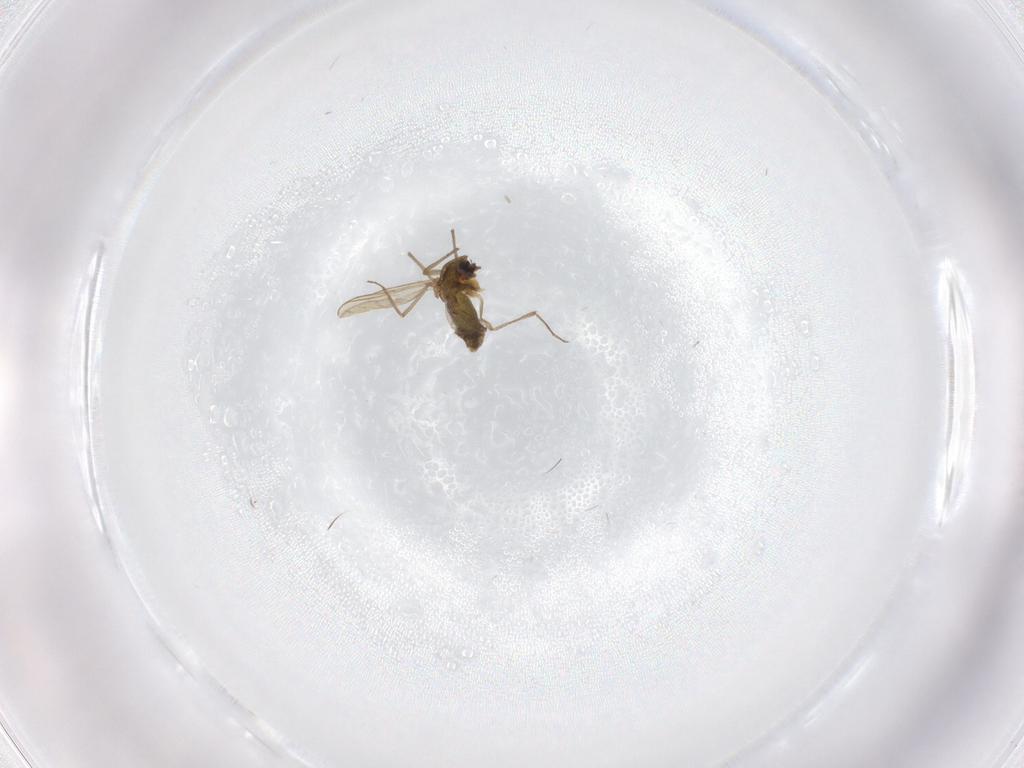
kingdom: Animalia
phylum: Arthropoda
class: Insecta
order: Diptera
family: Chironomidae
